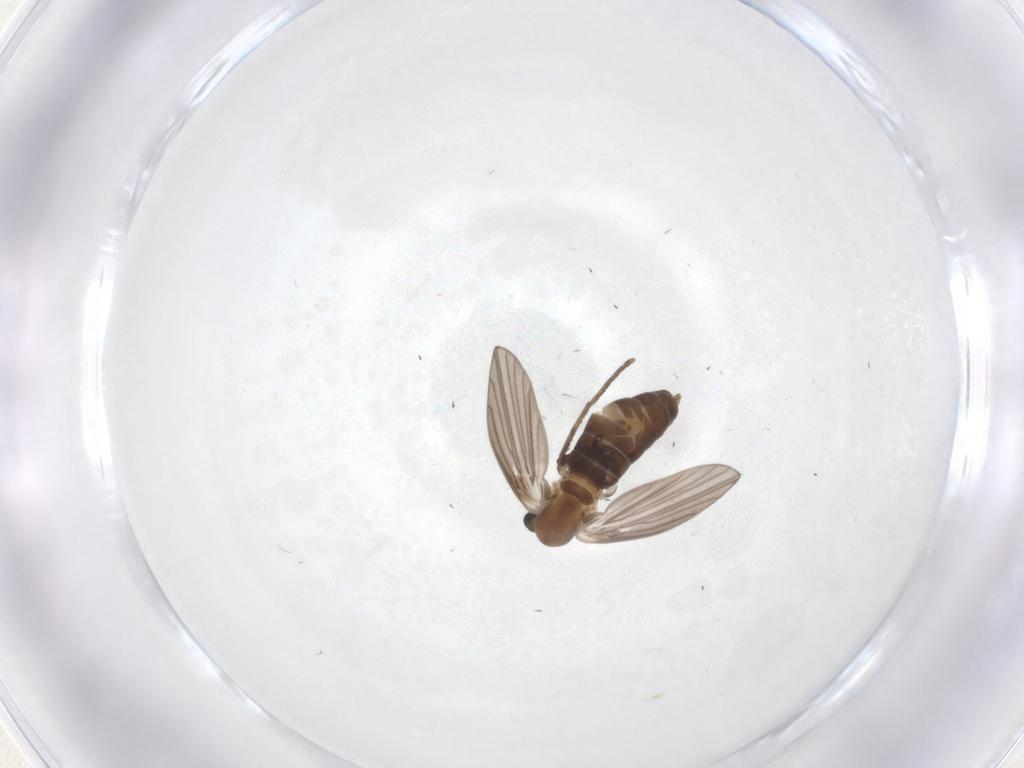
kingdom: Animalia
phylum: Arthropoda
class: Insecta
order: Diptera
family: Psychodidae
